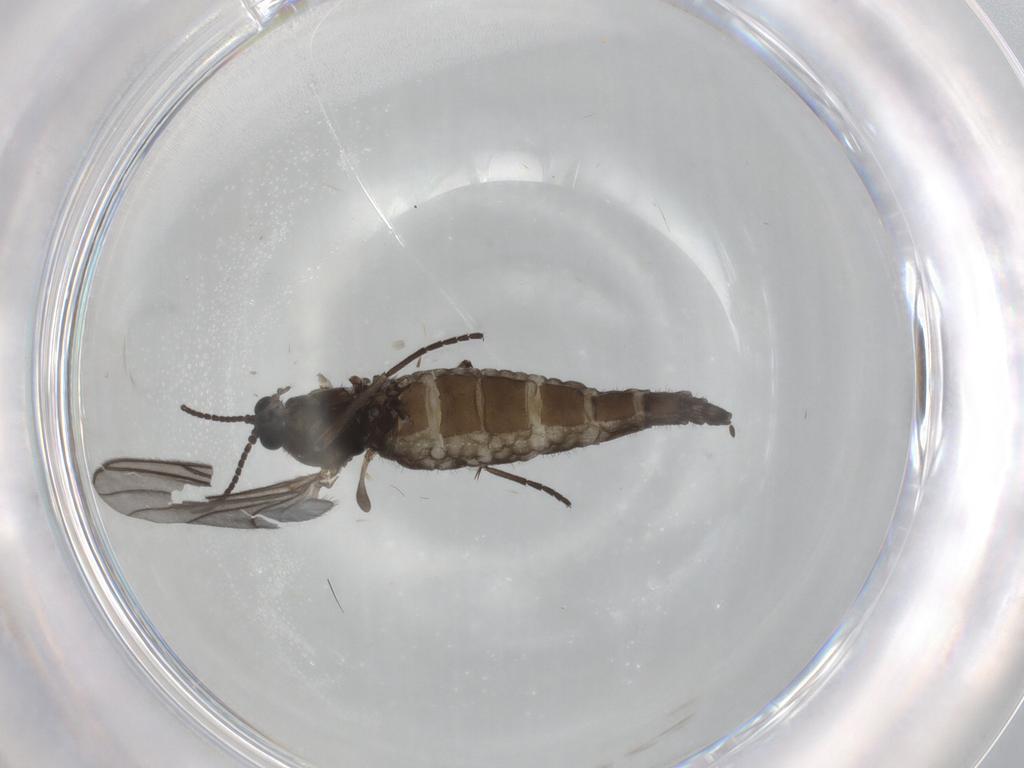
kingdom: Animalia
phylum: Arthropoda
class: Insecta
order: Diptera
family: Sciaridae
